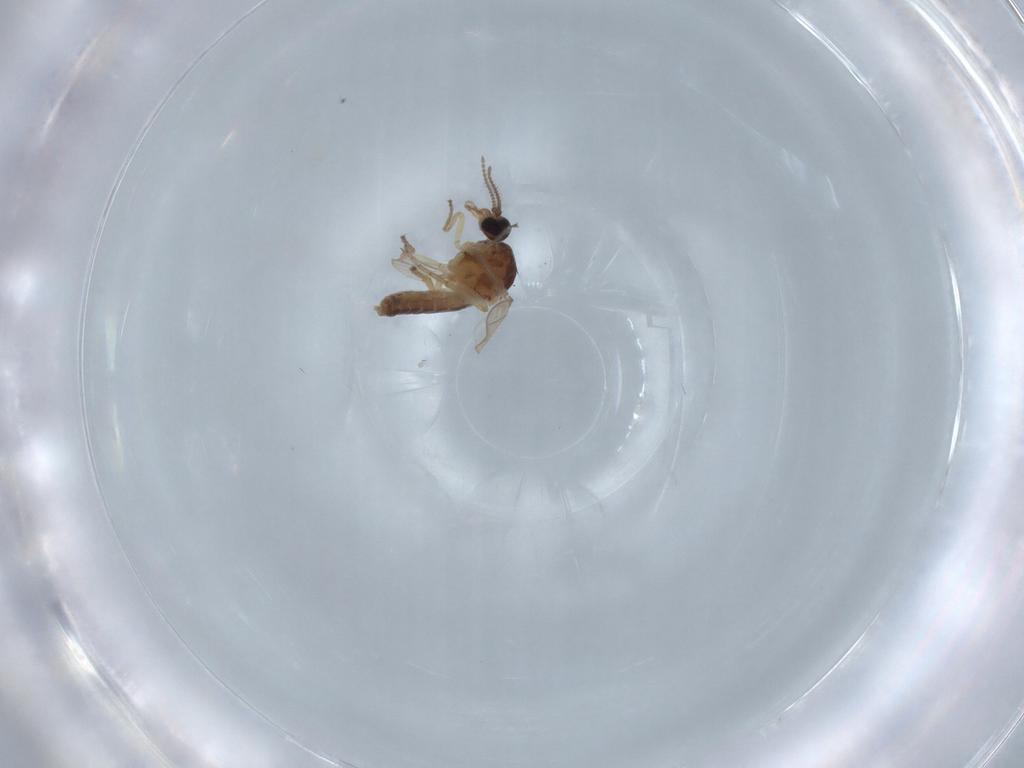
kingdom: Animalia
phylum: Arthropoda
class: Insecta
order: Diptera
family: Ceratopogonidae
